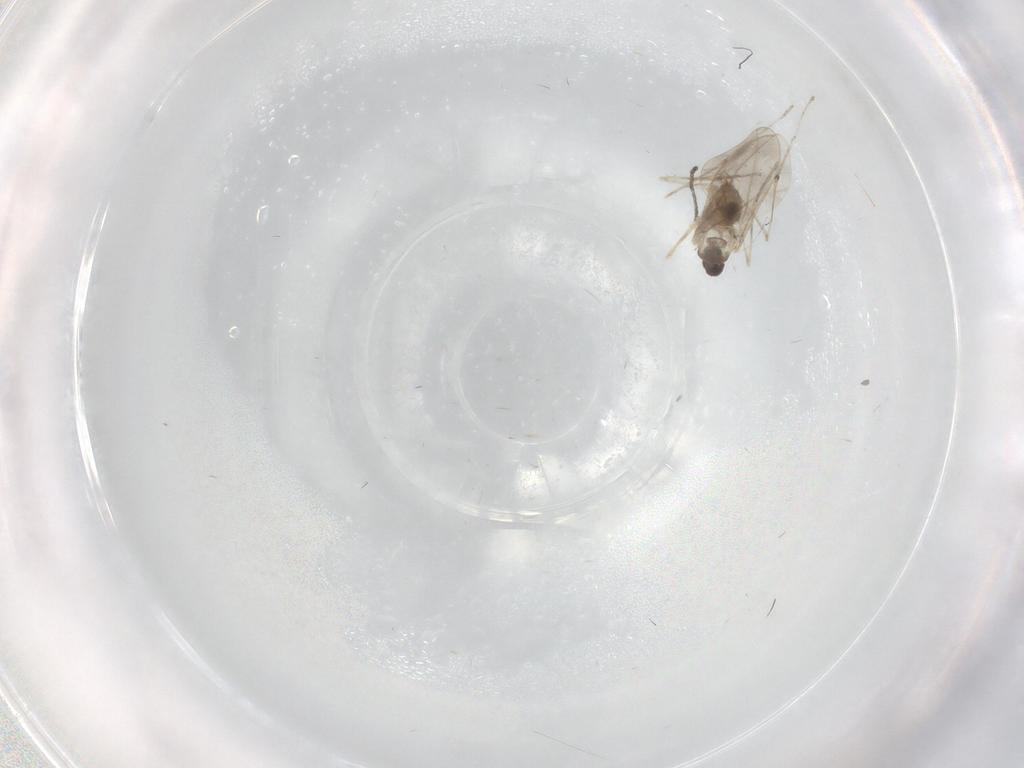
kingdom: Animalia
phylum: Arthropoda
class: Insecta
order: Diptera
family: Cecidomyiidae
